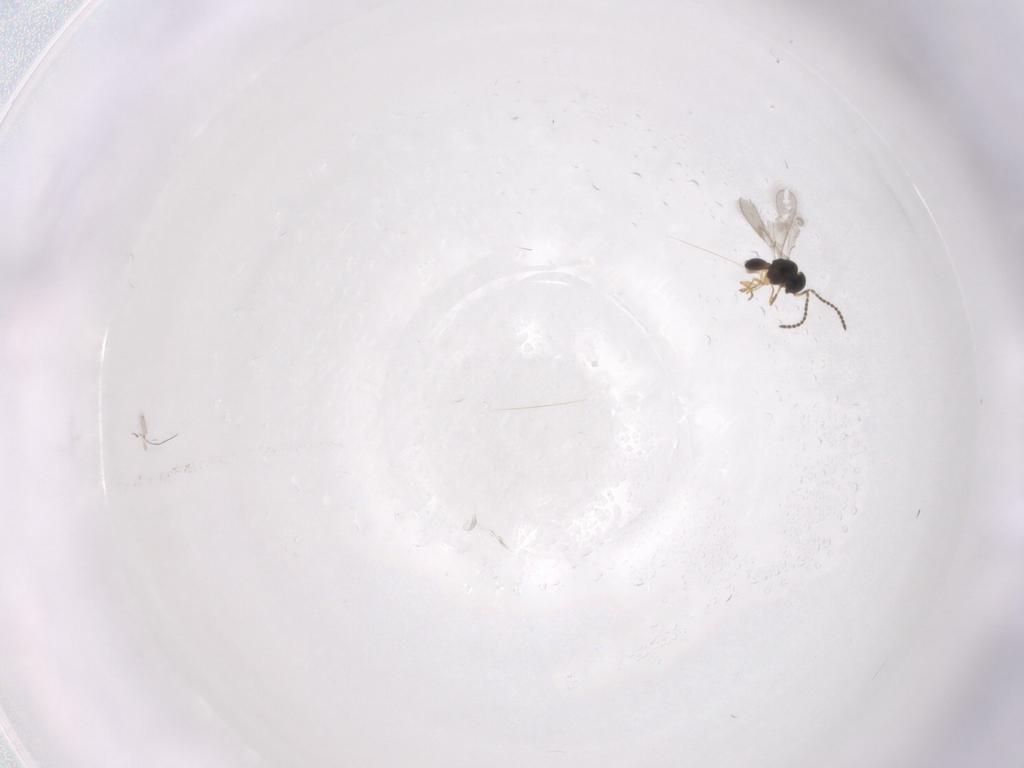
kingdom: Animalia
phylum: Arthropoda
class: Insecta
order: Hymenoptera
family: Scelionidae
